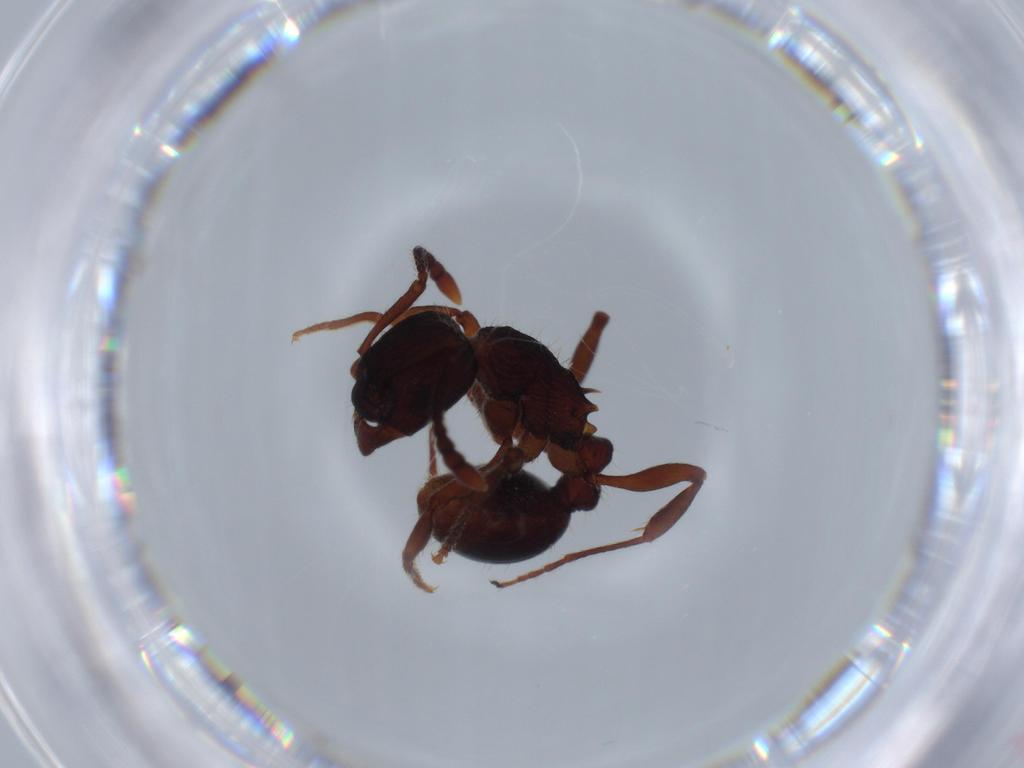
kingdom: Animalia
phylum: Arthropoda
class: Insecta
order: Hymenoptera
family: Formicidae
